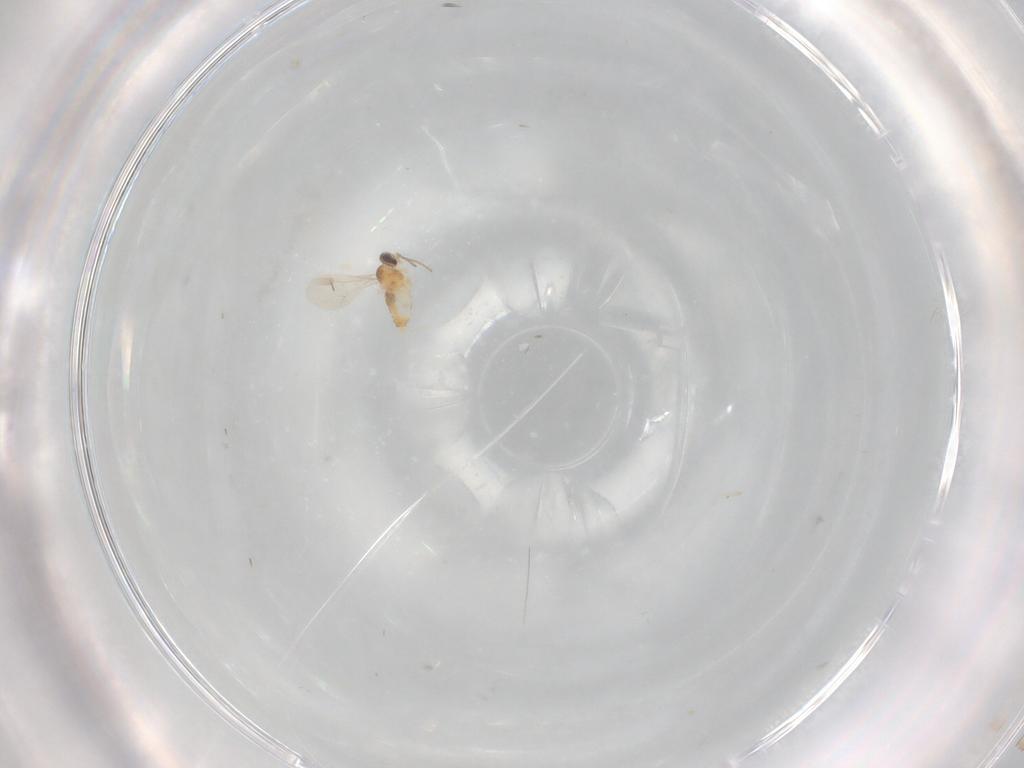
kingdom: Animalia
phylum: Arthropoda
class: Insecta
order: Diptera
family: Cecidomyiidae
